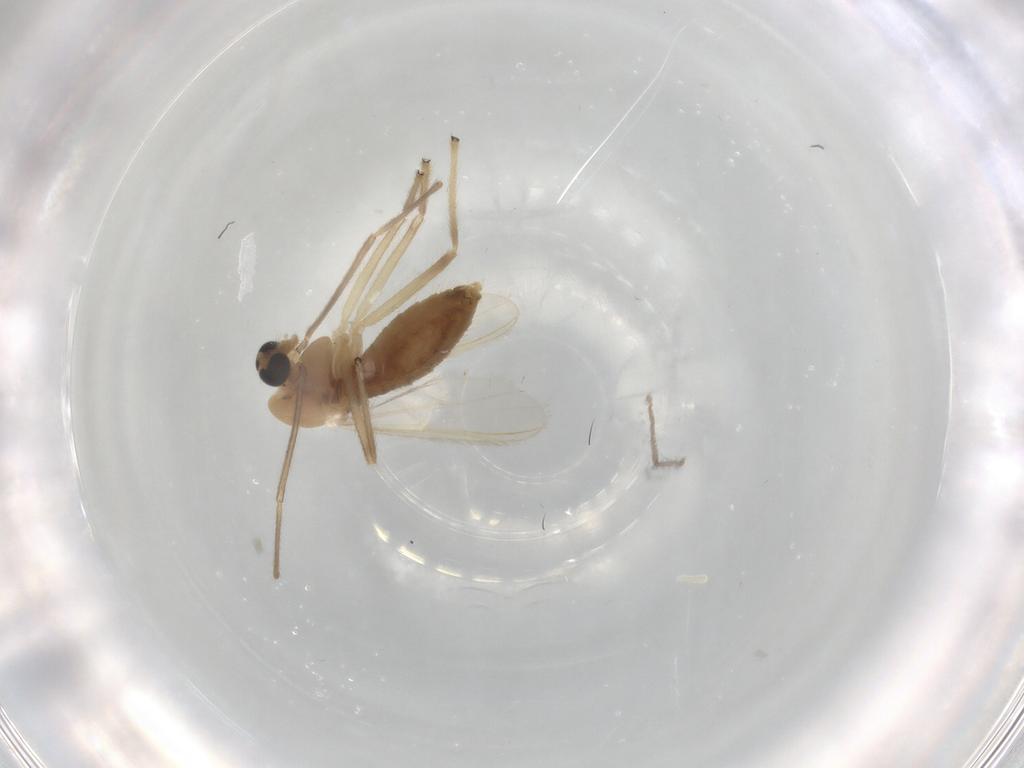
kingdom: Animalia
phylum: Arthropoda
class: Insecta
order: Diptera
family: Chironomidae
